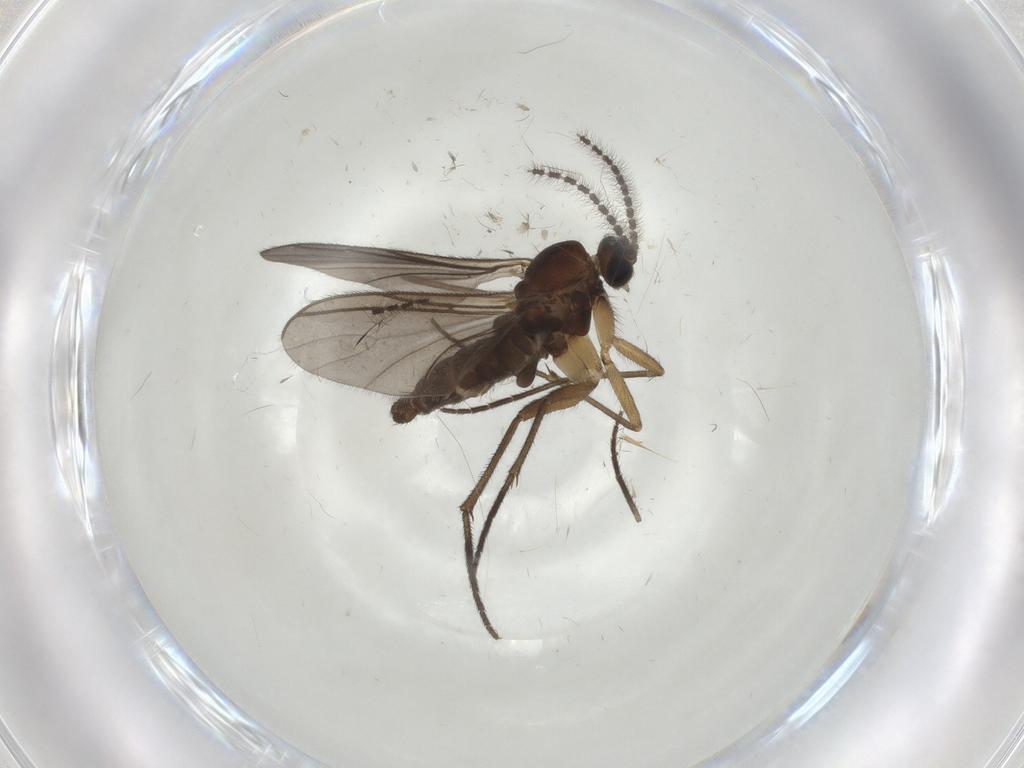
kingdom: Animalia
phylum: Arthropoda
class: Insecta
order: Diptera
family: Sciaridae
